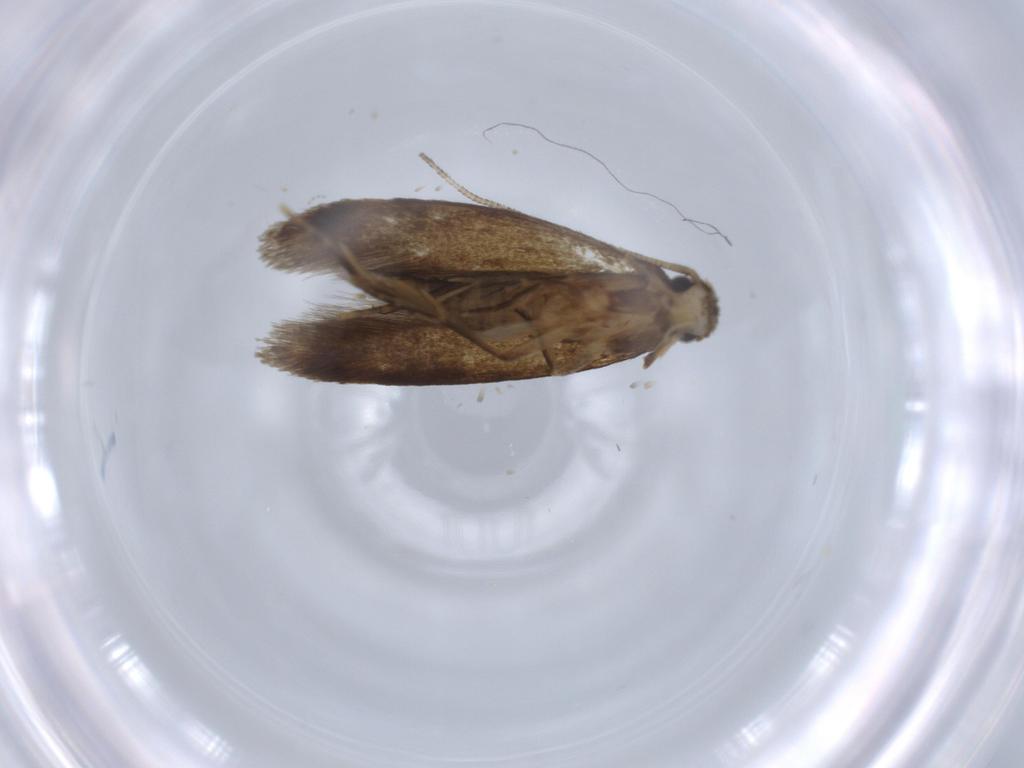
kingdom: Animalia
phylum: Arthropoda
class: Insecta
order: Lepidoptera
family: Tineidae
